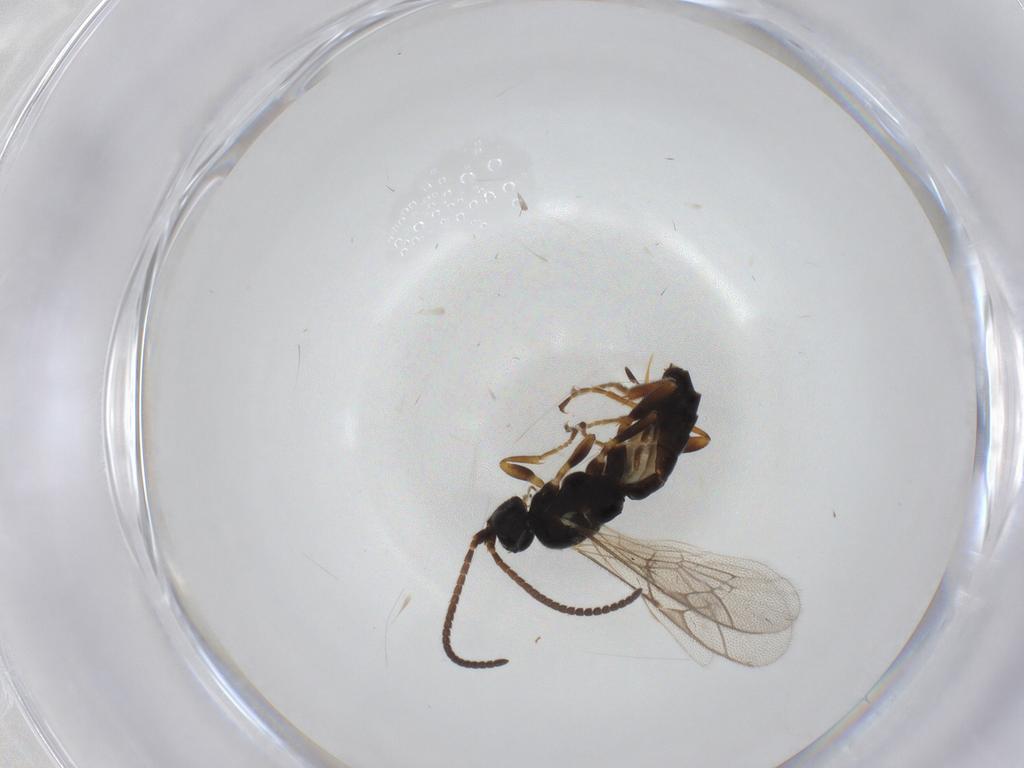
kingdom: Animalia
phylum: Arthropoda
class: Insecta
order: Hymenoptera
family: Ichneumonidae
